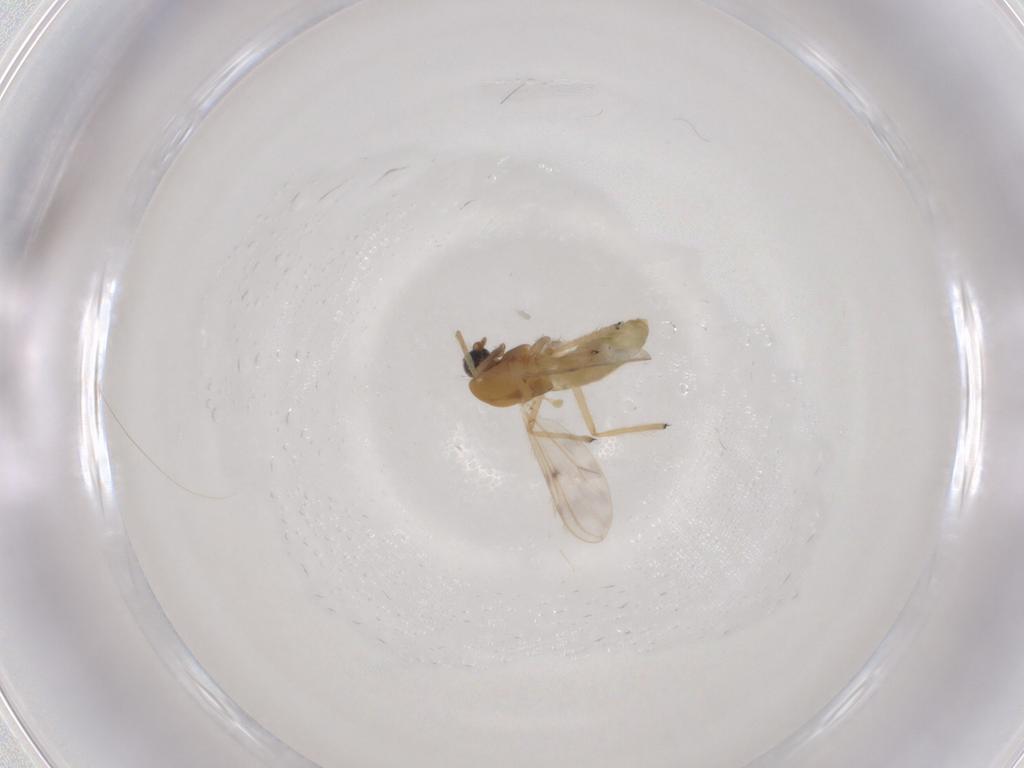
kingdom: Animalia
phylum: Arthropoda
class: Insecta
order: Diptera
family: Chironomidae
